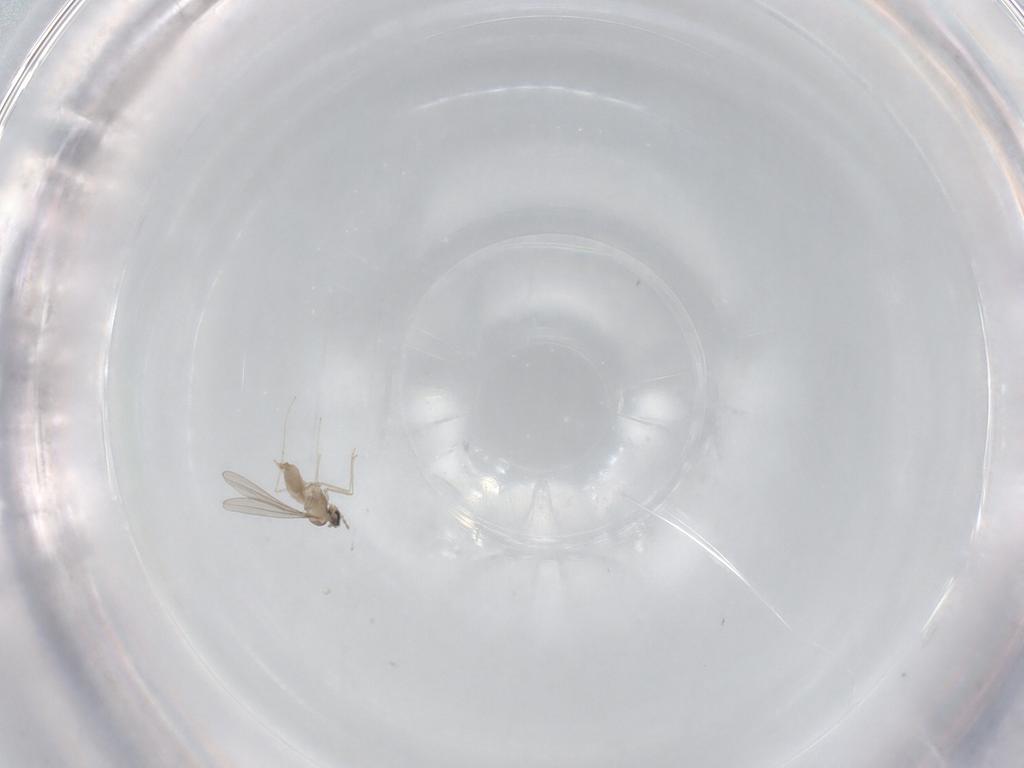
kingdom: Animalia
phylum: Arthropoda
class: Insecta
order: Diptera
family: Cecidomyiidae
